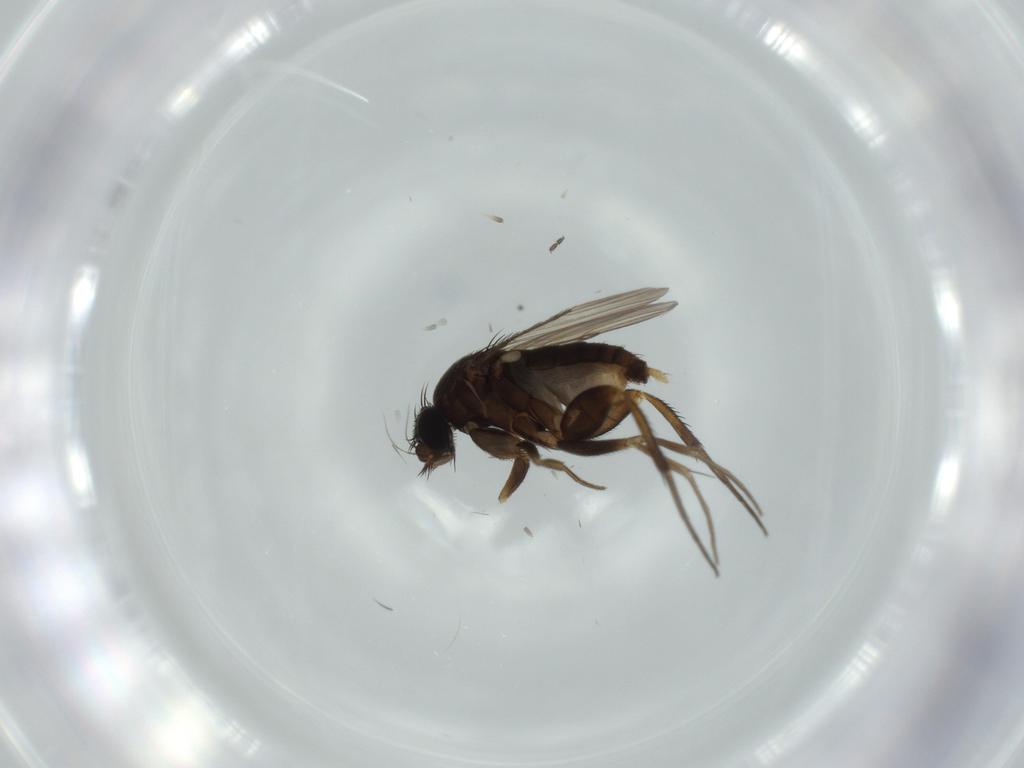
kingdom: Animalia
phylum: Arthropoda
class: Insecta
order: Diptera
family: Phoridae
